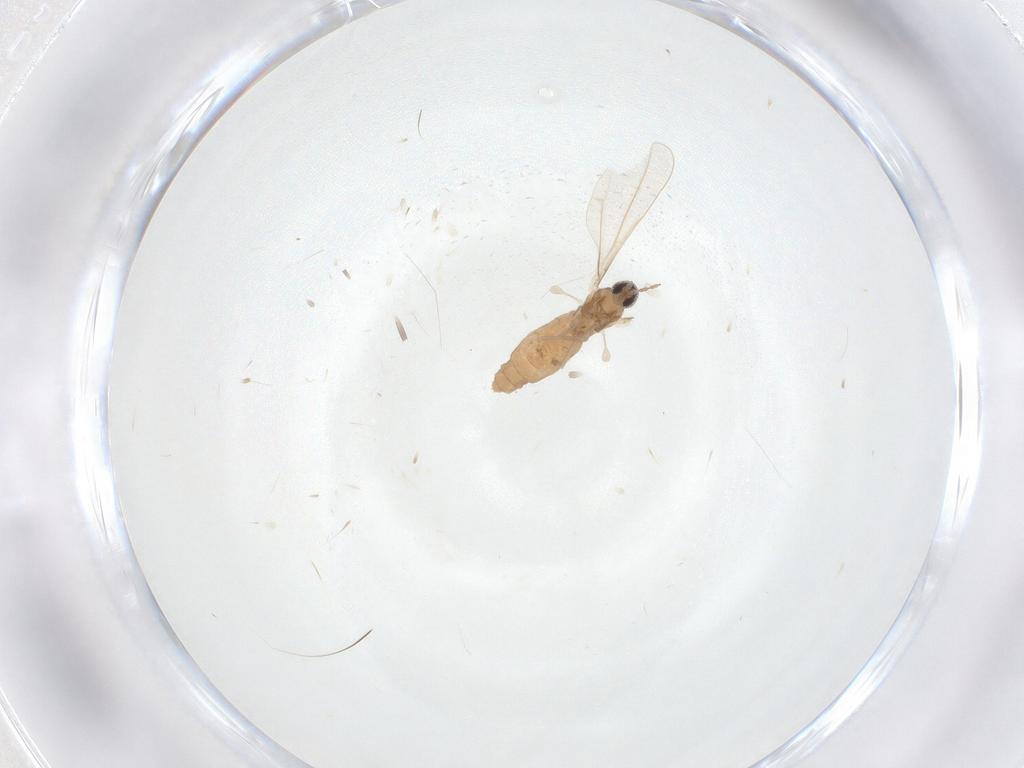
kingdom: Animalia
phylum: Arthropoda
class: Insecta
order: Diptera
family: Cecidomyiidae
